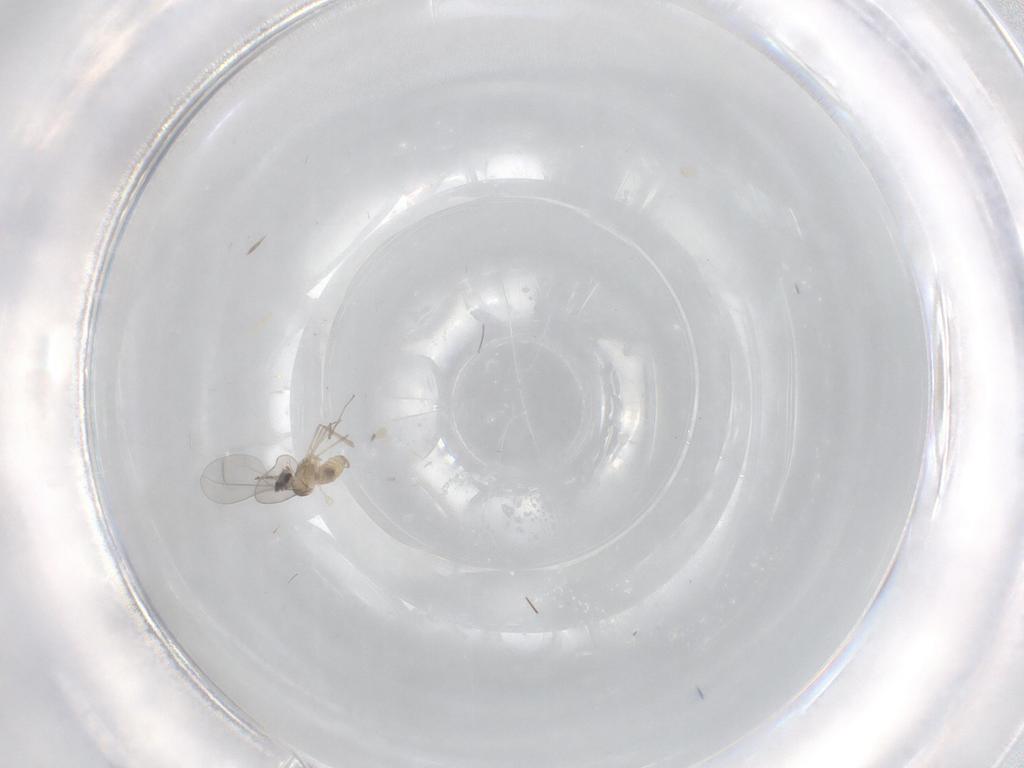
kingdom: Animalia
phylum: Arthropoda
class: Insecta
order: Diptera
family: Cecidomyiidae
